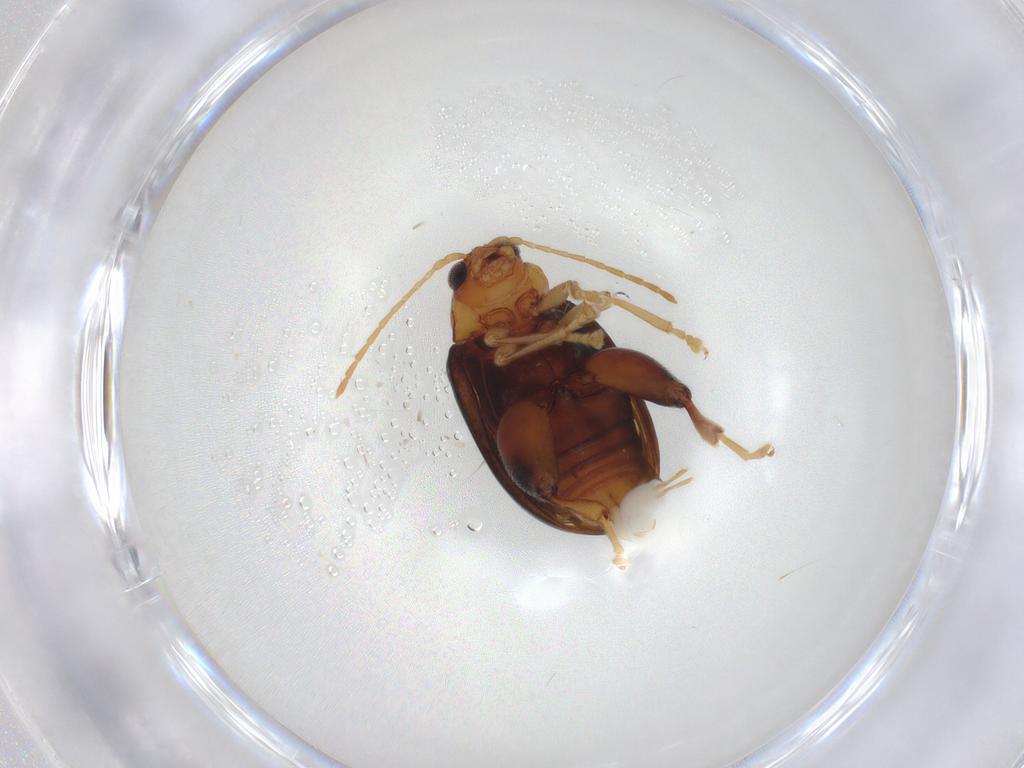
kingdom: Animalia
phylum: Arthropoda
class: Insecta
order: Coleoptera
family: Chrysomelidae
